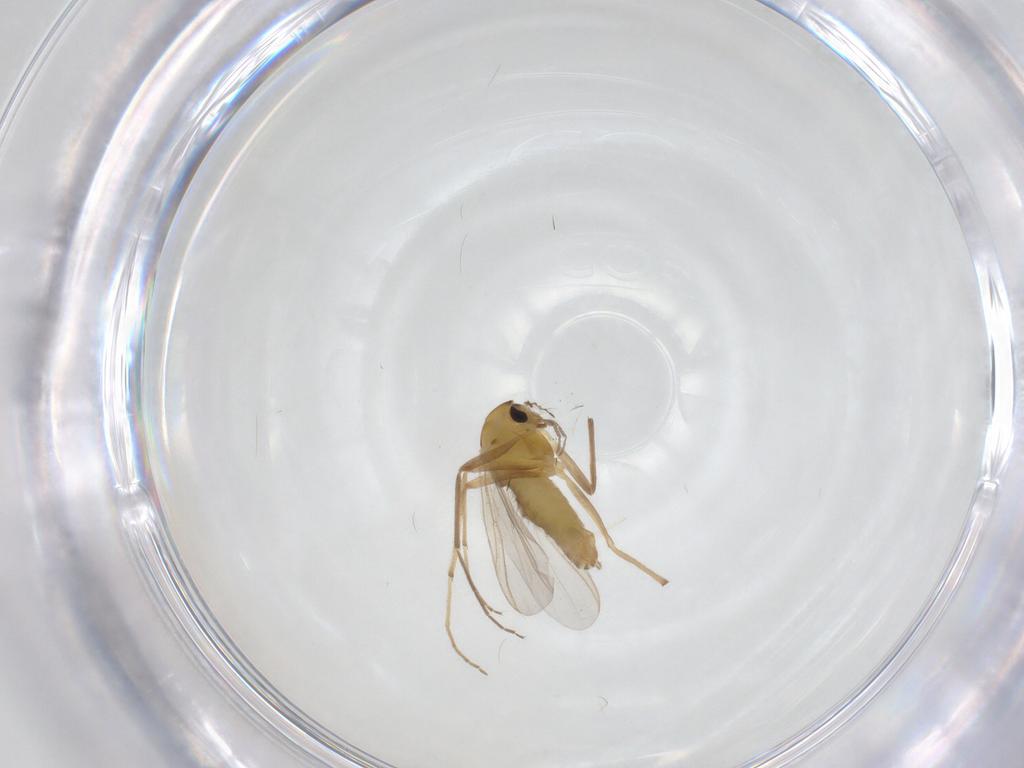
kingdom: Animalia
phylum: Arthropoda
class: Insecta
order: Diptera
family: Chironomidae
